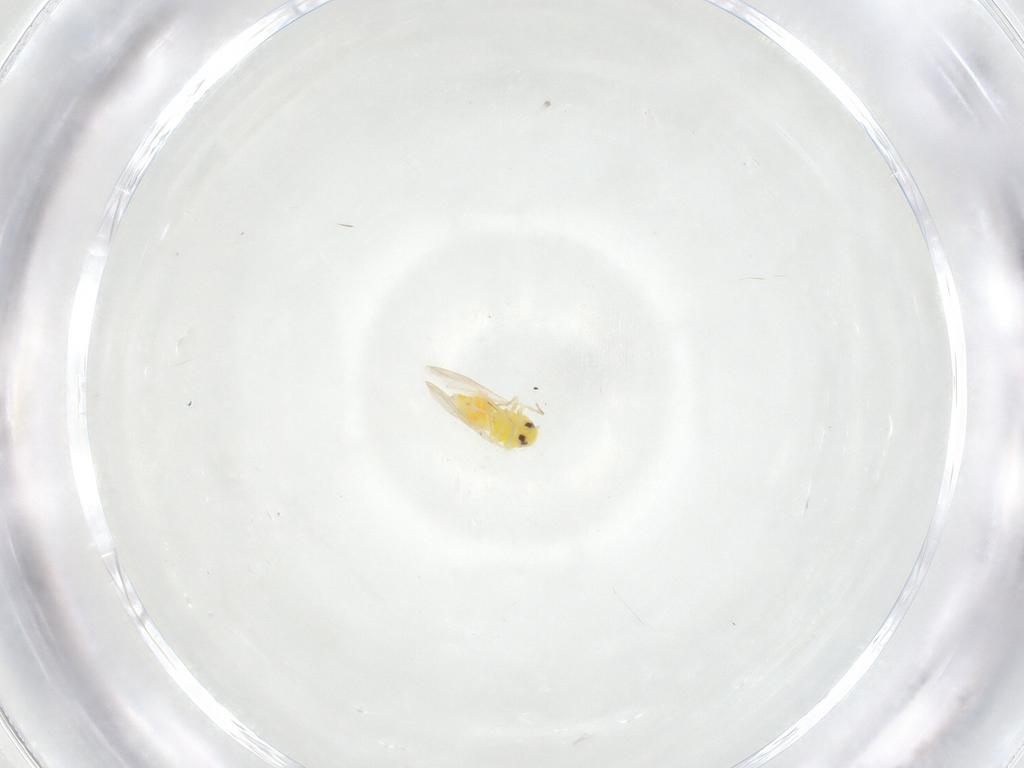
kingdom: Animalia
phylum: Arthropoda
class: Insecta
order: Hemiptera
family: Aleyrodidae
